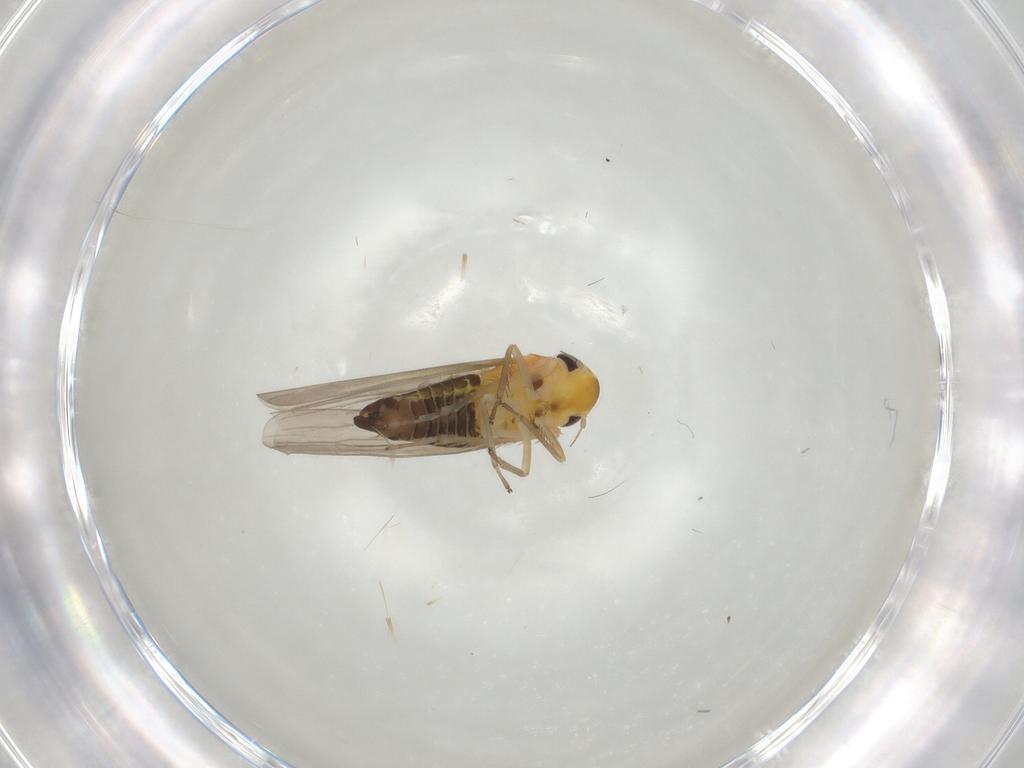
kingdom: Animalia
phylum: Arthropoda
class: Insecta
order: Hemiptera
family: Cicadellidae
